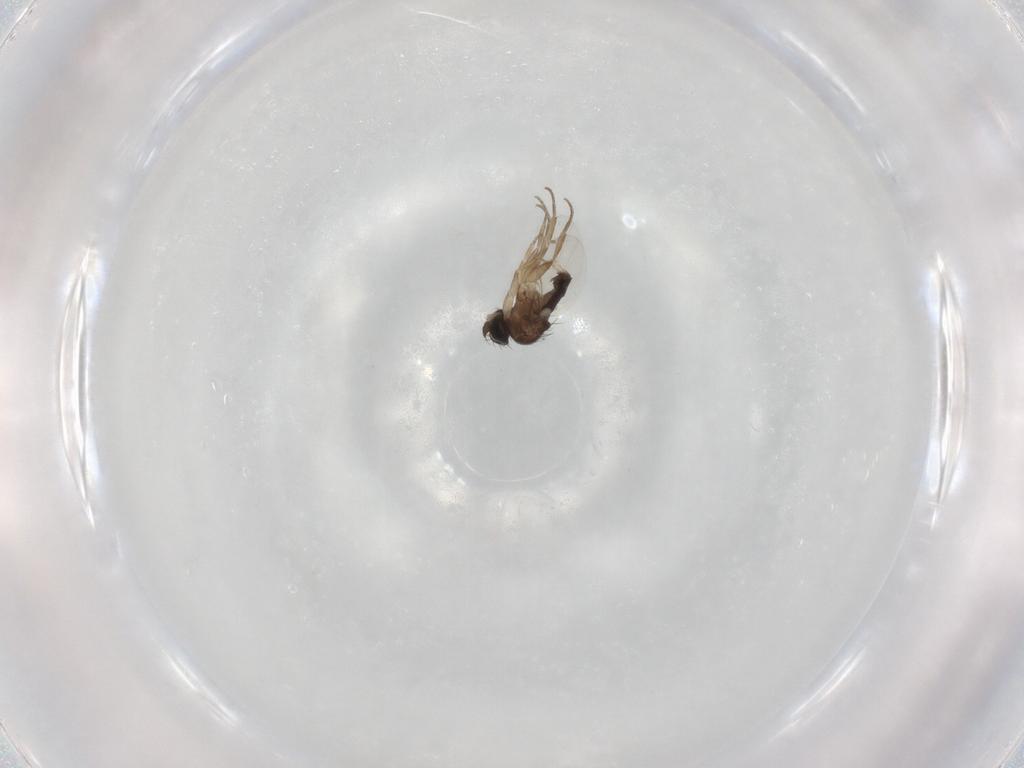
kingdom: Animalia
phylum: Arthropoda
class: Insecta
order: Diptera
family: Phoridae
